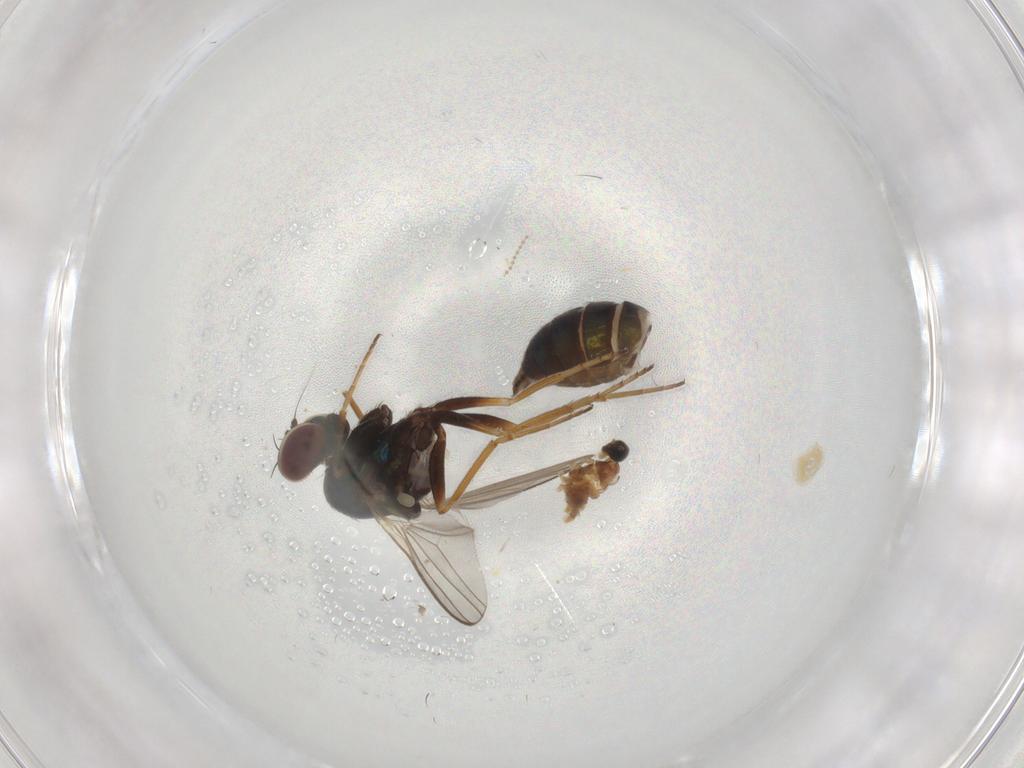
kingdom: Animalia
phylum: Arthropoda
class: Insecta
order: Diptera
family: Dolichopodidae
